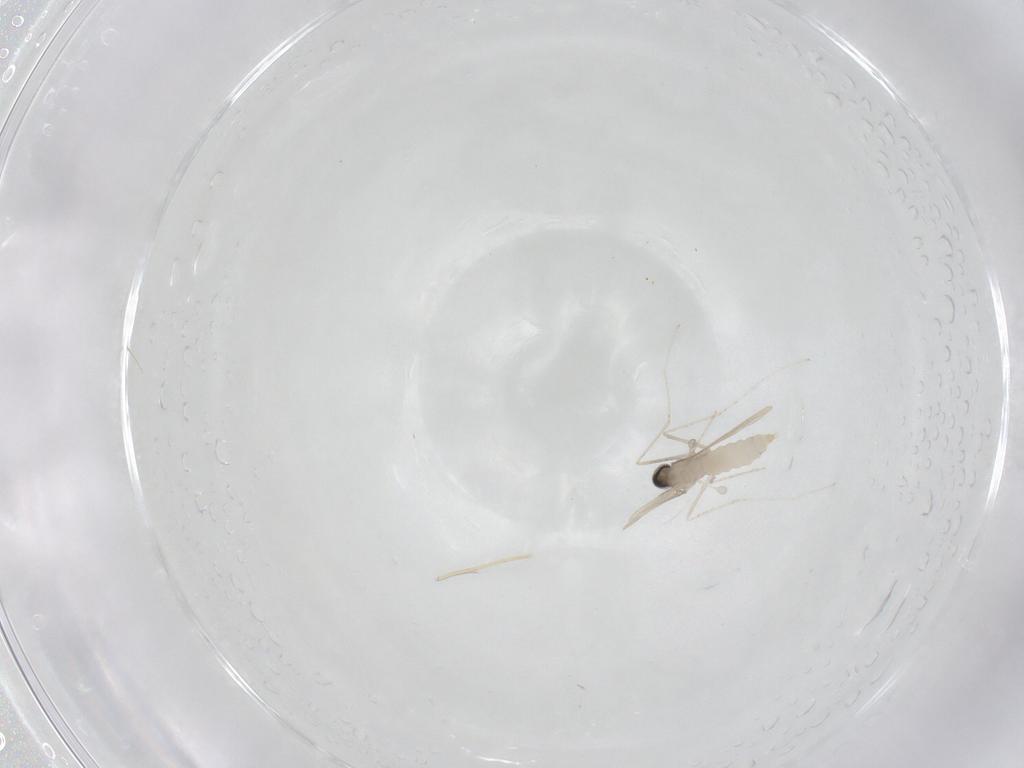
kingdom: Animalia
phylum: Arthropoda
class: Insecta
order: Diptera
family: Cecidomyiidae
